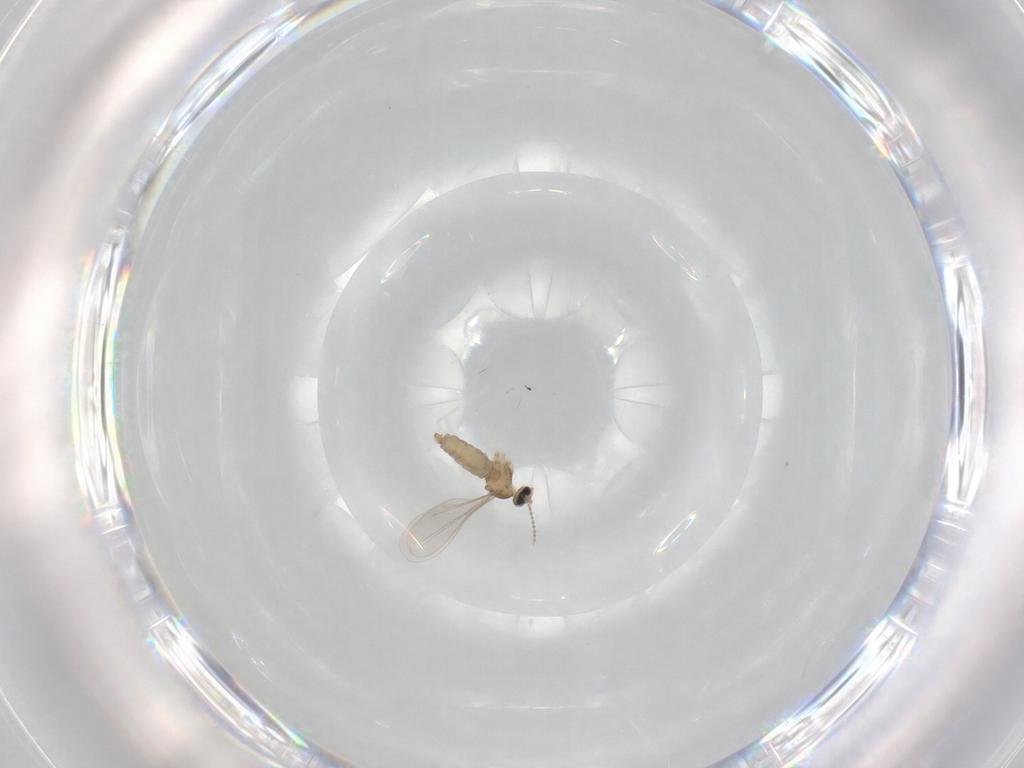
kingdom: Animalia
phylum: Arthropoda
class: Insecta
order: Diptera
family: Cecidomyiidae
